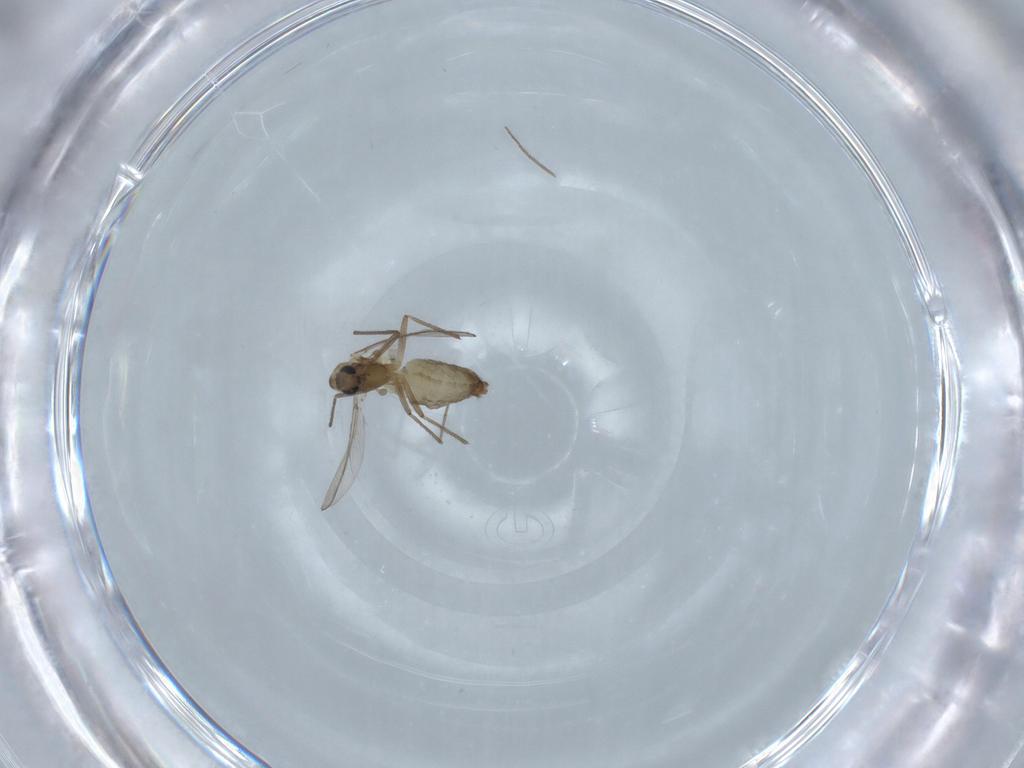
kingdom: Animalia
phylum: Arthropoda
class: Insecta
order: Diptera
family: Chironomidae
